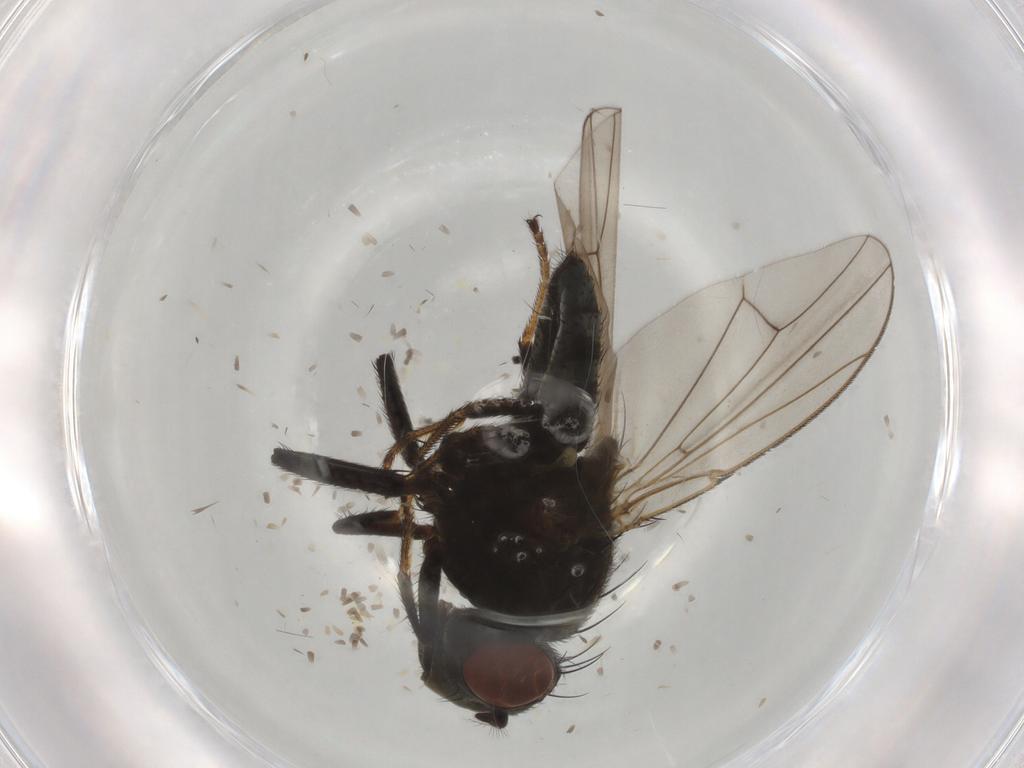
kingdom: Animalia
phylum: Arthropoda
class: Insecta
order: Diptera
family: Ephydridae
